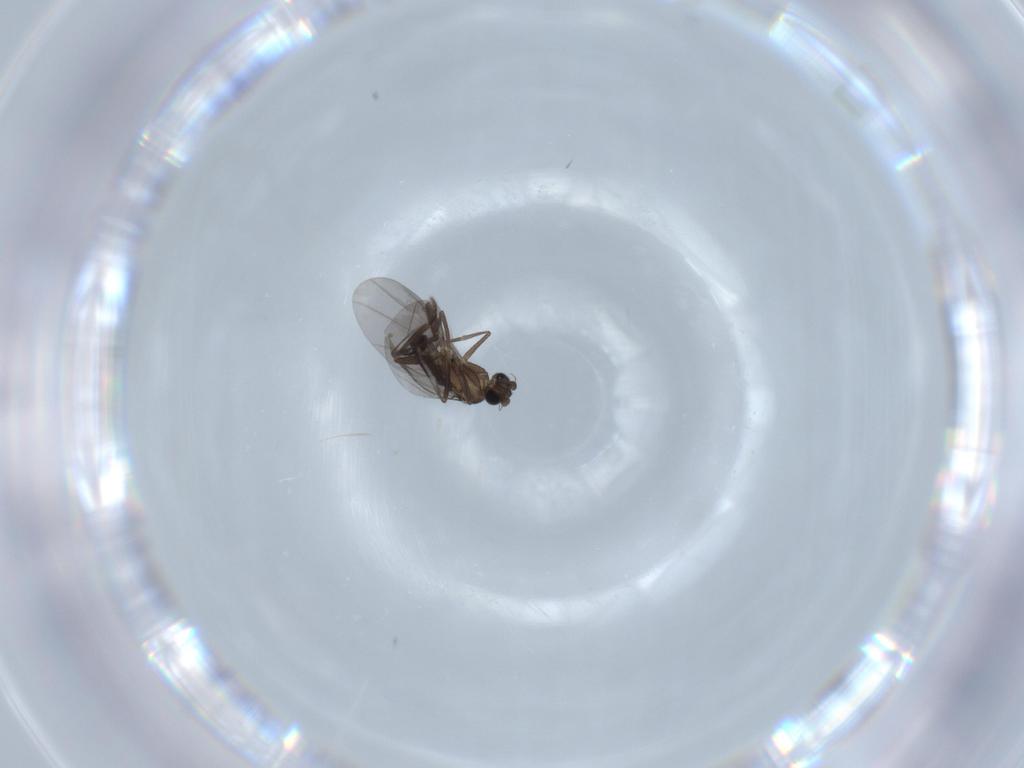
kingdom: Animalia
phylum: Arthropoda
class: Insecta
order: Diptera
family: Phoridae
